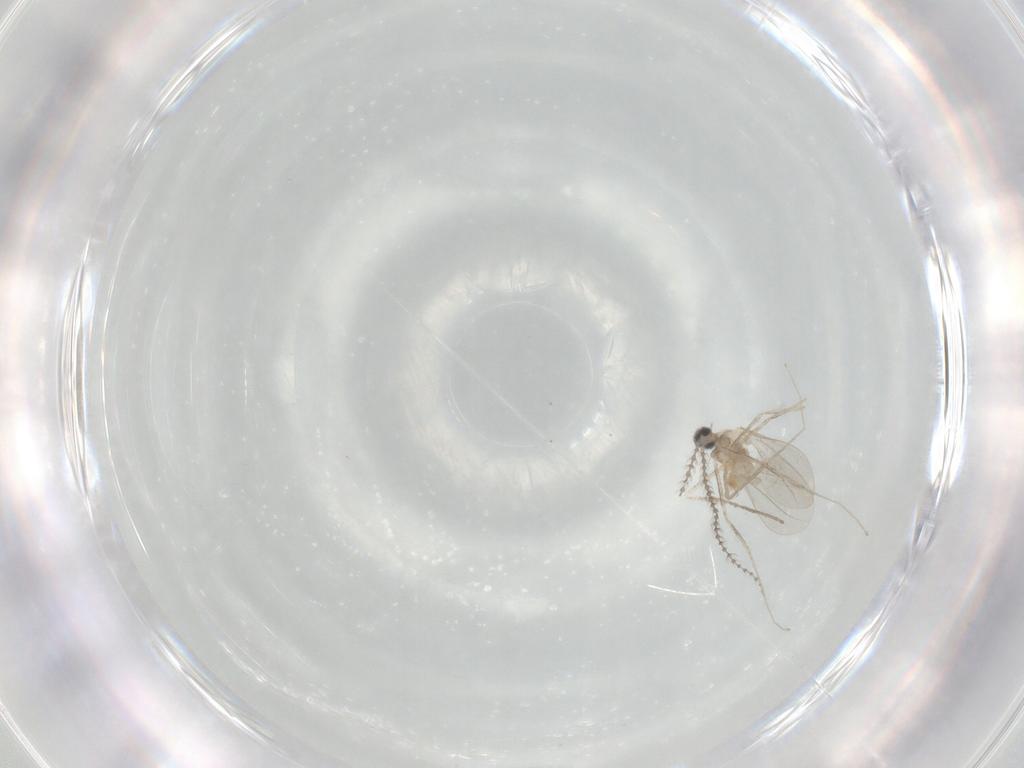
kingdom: Animalia
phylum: Arthropoda
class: Insecta
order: Diptera
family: Cecidomyiidae
